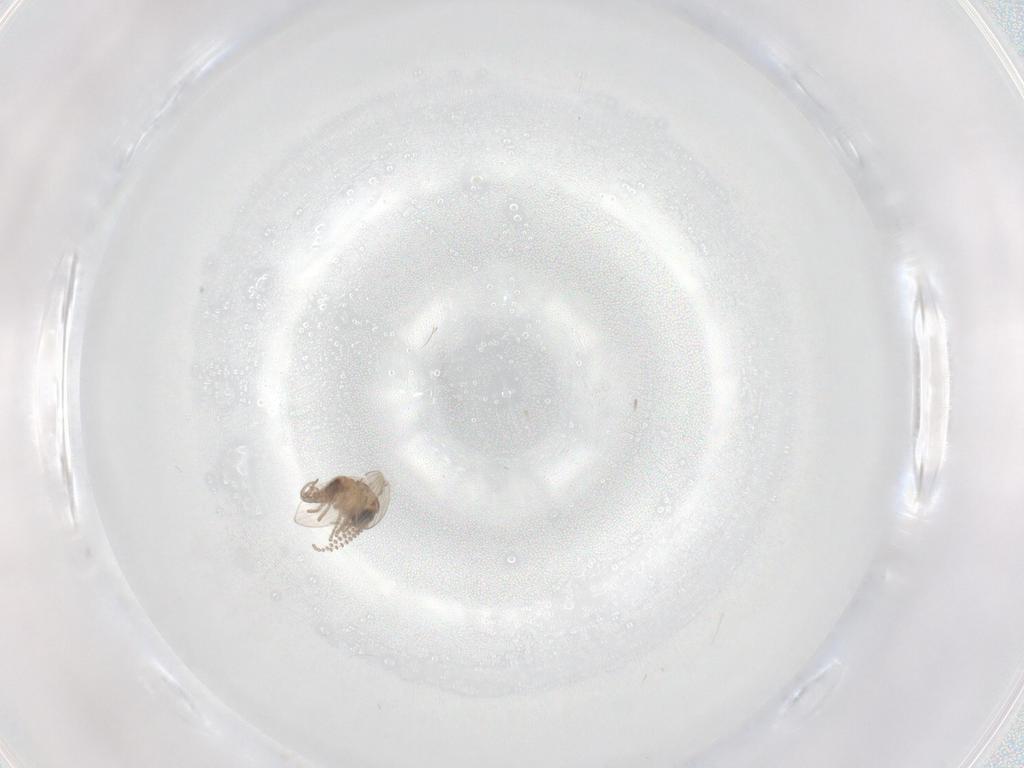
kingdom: Animalia
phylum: Arthropoda
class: Insecta
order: Diptera
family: Psychodidae
